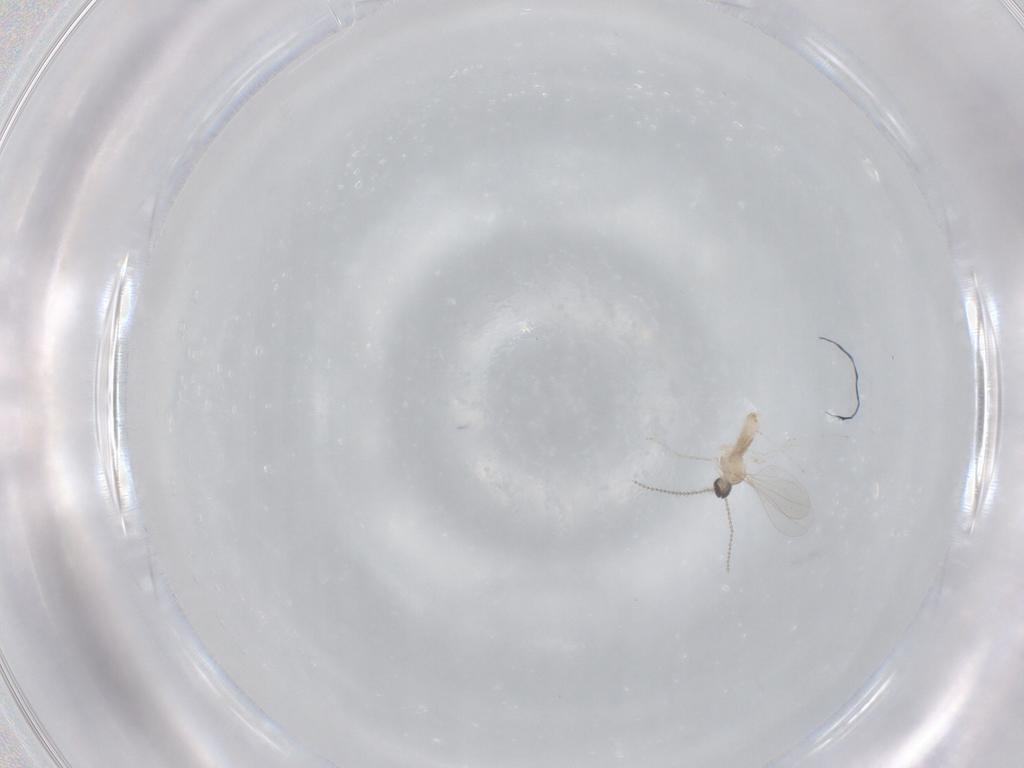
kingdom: Animalia
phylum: Arthropoda
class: Insecta
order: Diptera
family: Cecidomyiidae
